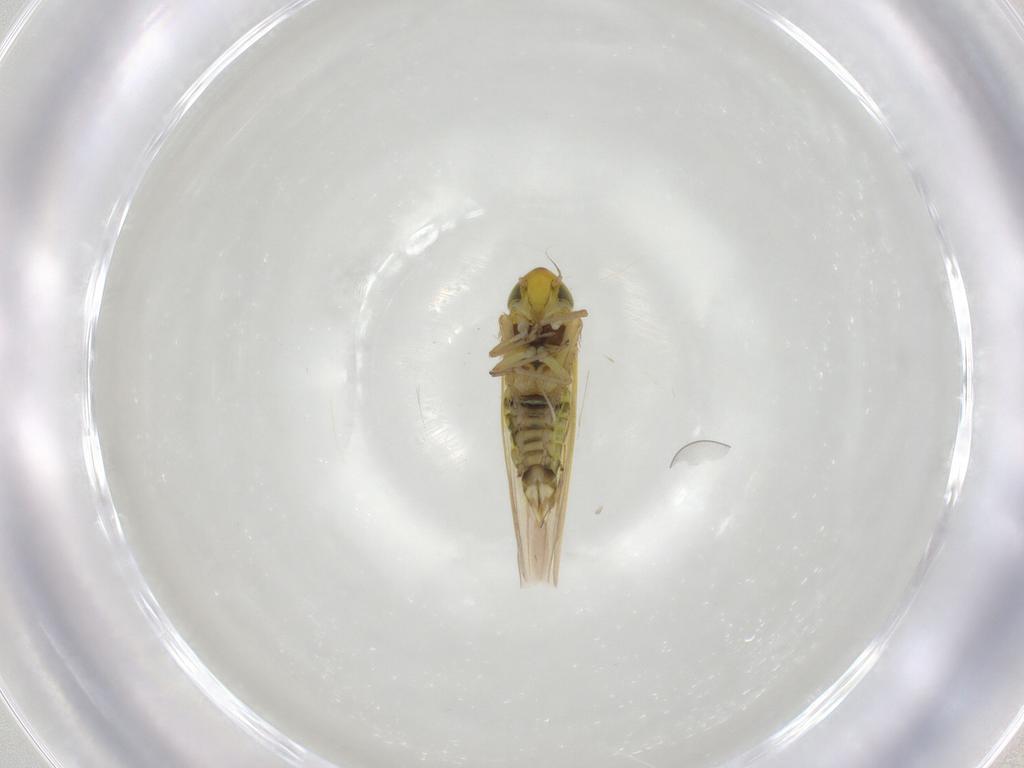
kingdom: Animalia
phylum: Arthropoda
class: Insecta
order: Hemiptera
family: Cicadellidae
